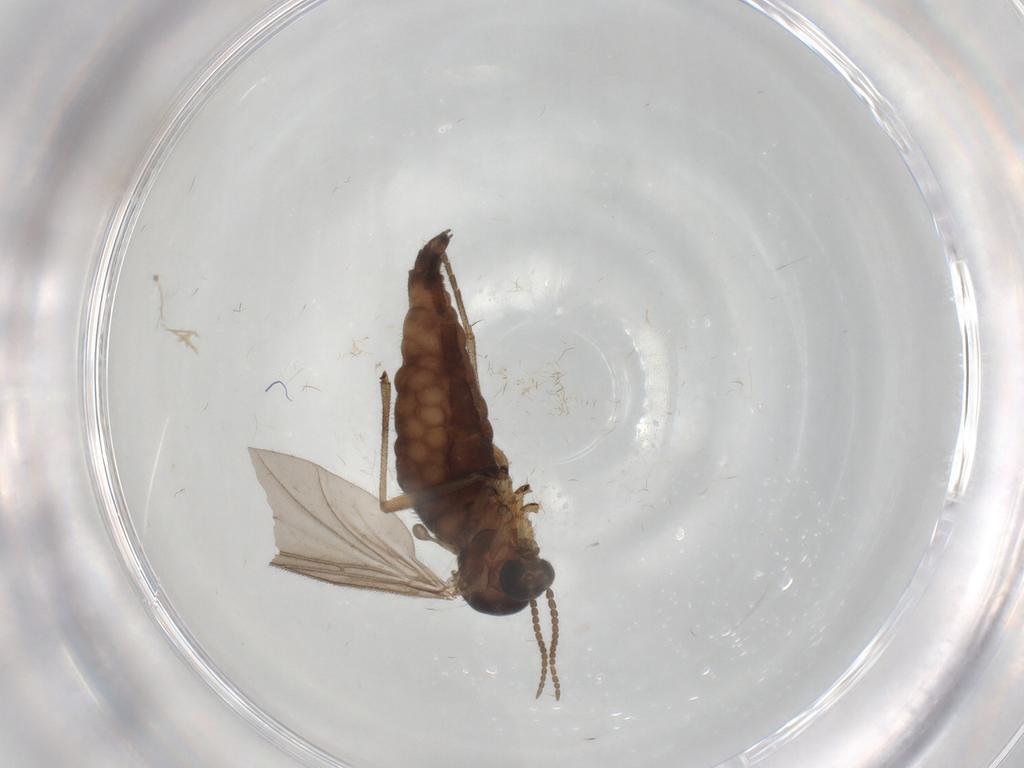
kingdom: Animalia
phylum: Arthropoda
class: Insecta
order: Diptera
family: Sciaridae
